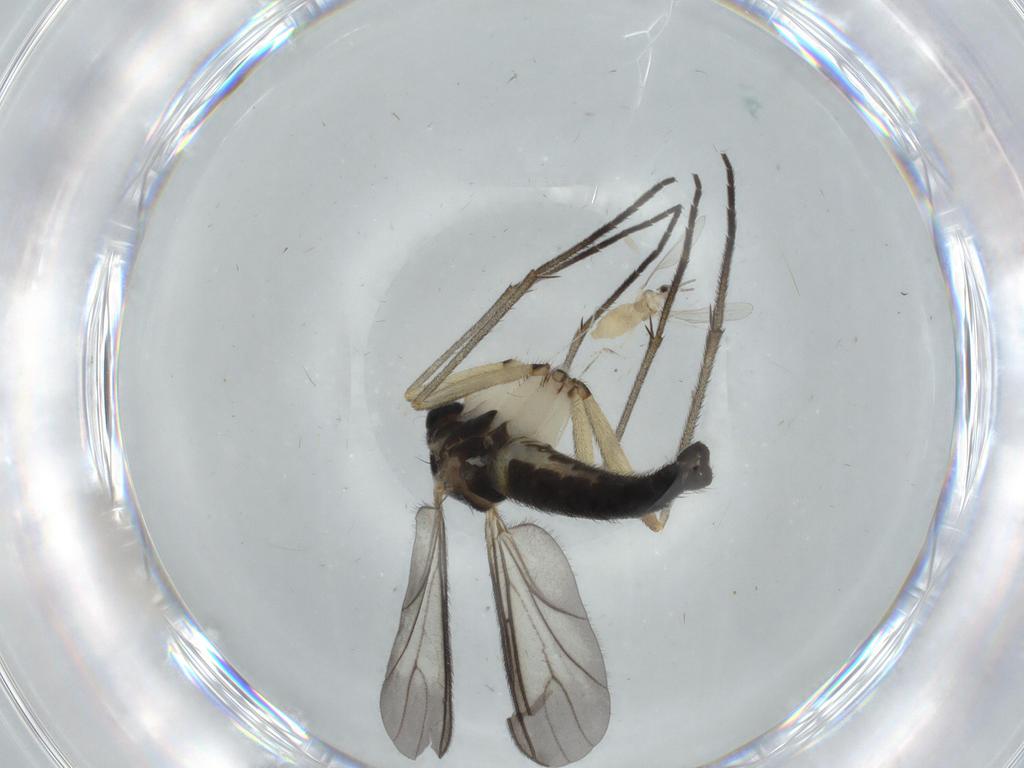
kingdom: Animalia
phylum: Arthropoda
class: Insecta
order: Diptera
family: Sciaridae
